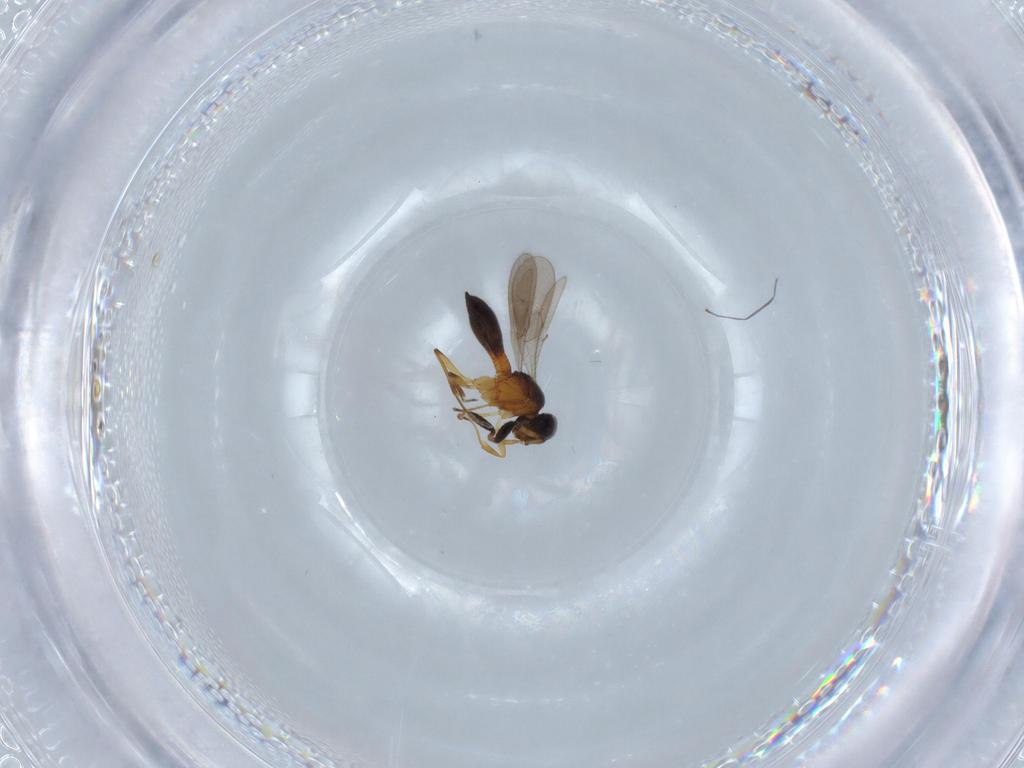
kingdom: Animalia
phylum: Arthropoda
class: Insecta
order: Hymenoptera
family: Scelionidae
